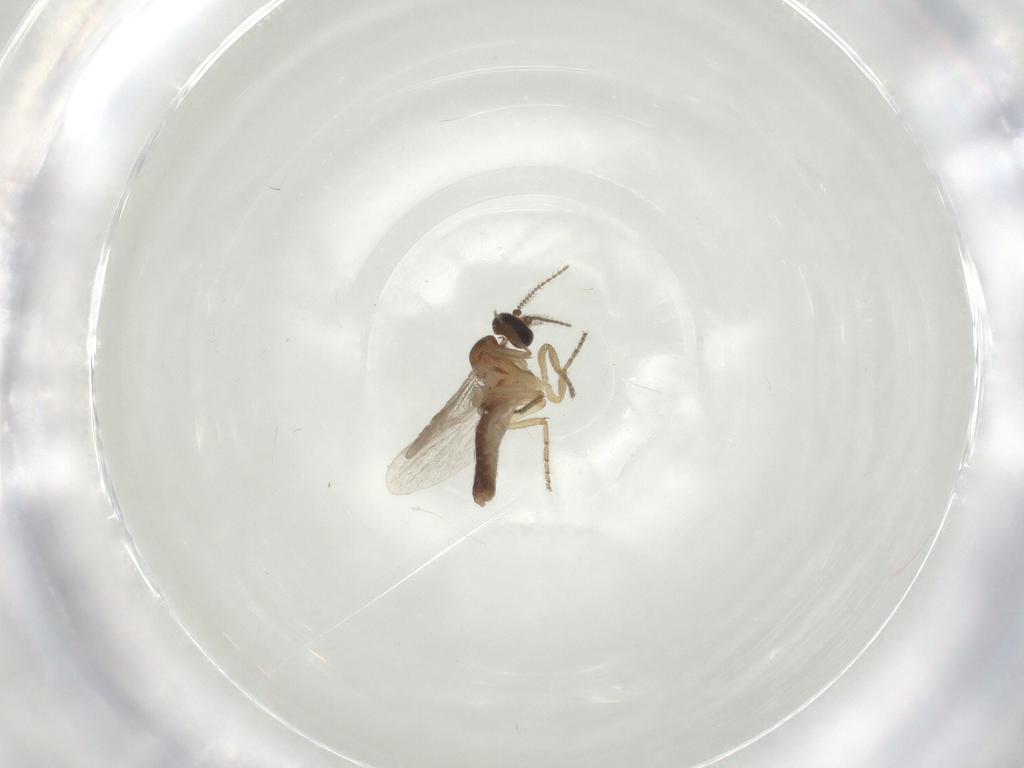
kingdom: Animalia
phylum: Arthropoda
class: Insecta
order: Diptera
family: Ceratopogonidae
